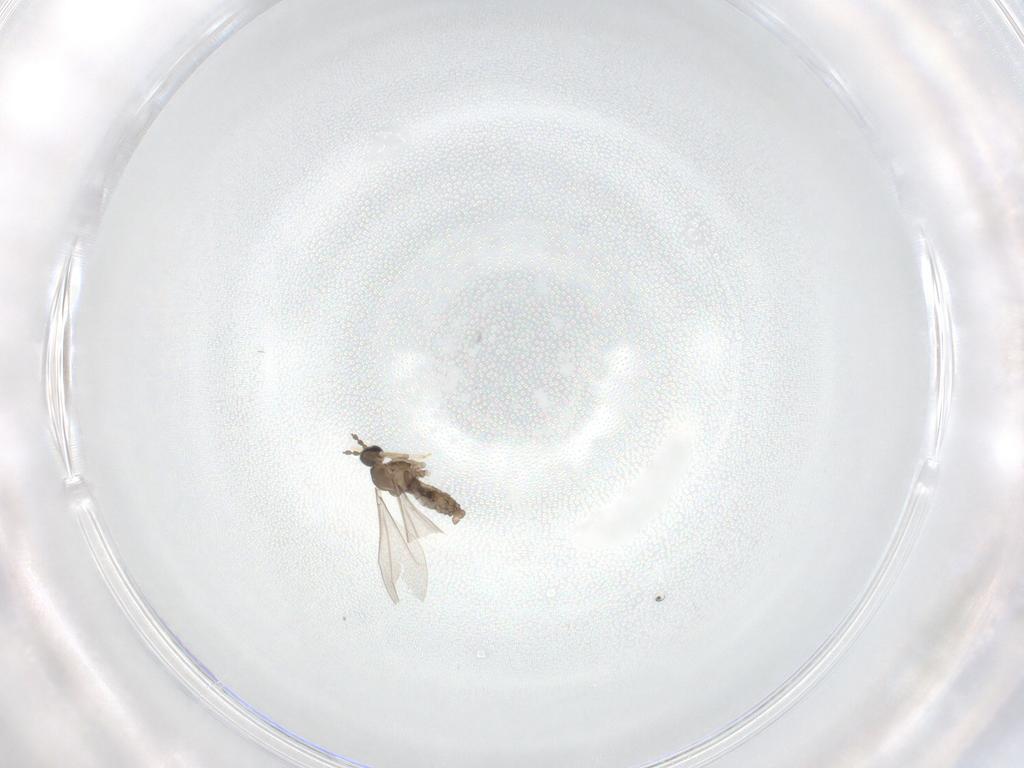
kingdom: Animalia
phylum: Arthropoda
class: Insecta
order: Diptera
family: Cecidomyiidae
